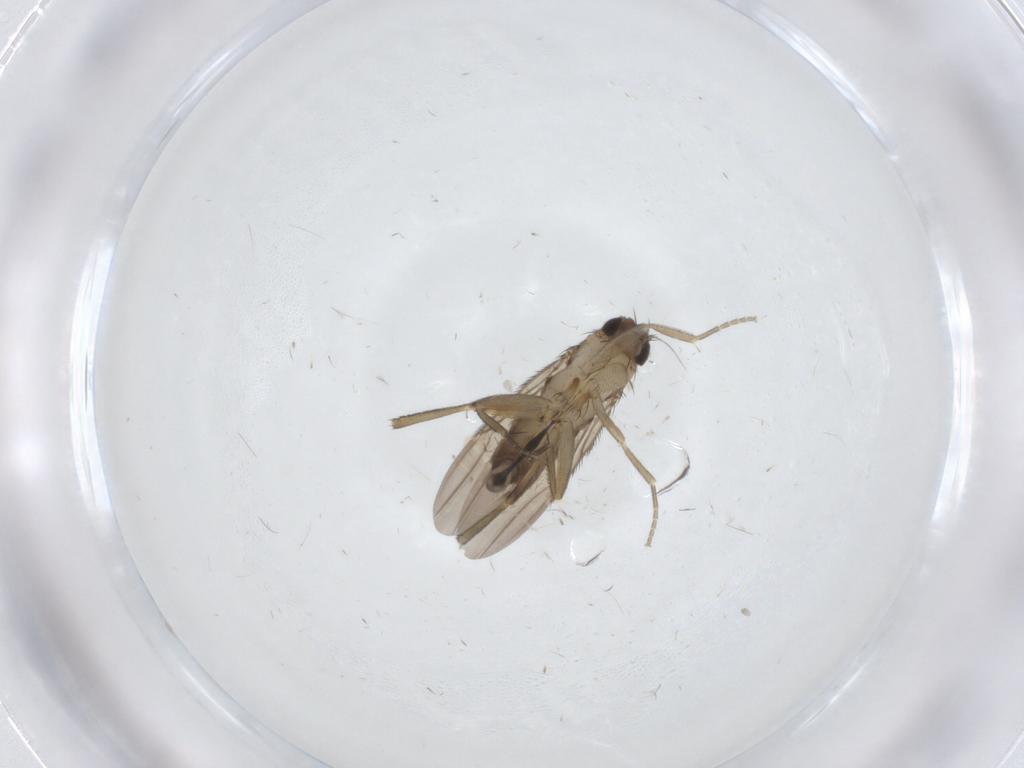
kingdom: Animalia
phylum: Arthropoda
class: Insecta
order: Diptera
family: Phoridae
